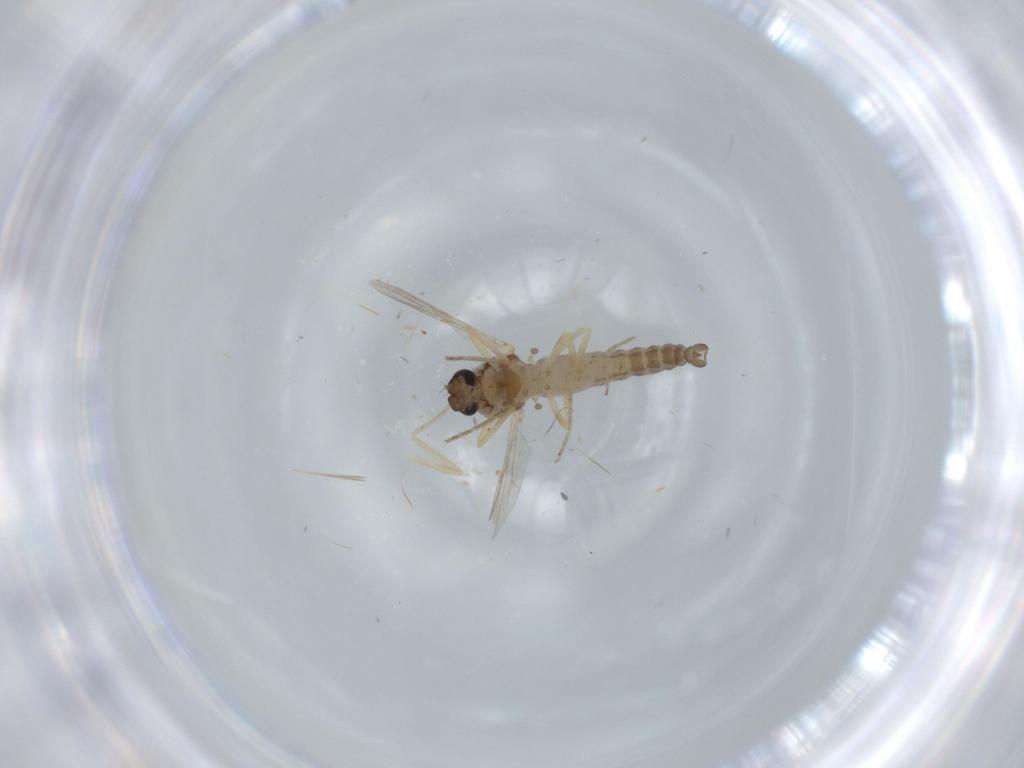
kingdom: Animalia
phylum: Arthropoda
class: Insecta
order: Diptera
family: Ceratopogonidae
